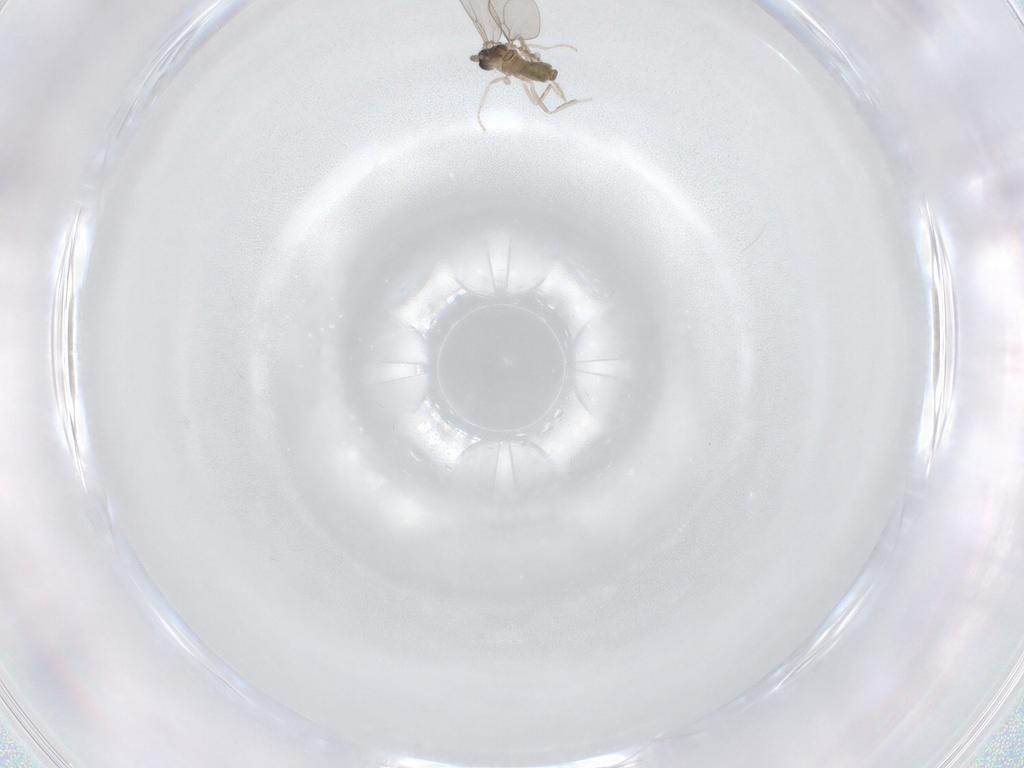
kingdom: Animalia
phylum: Arthropoda
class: Insecta
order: Diptera
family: Cecidomyiidae
